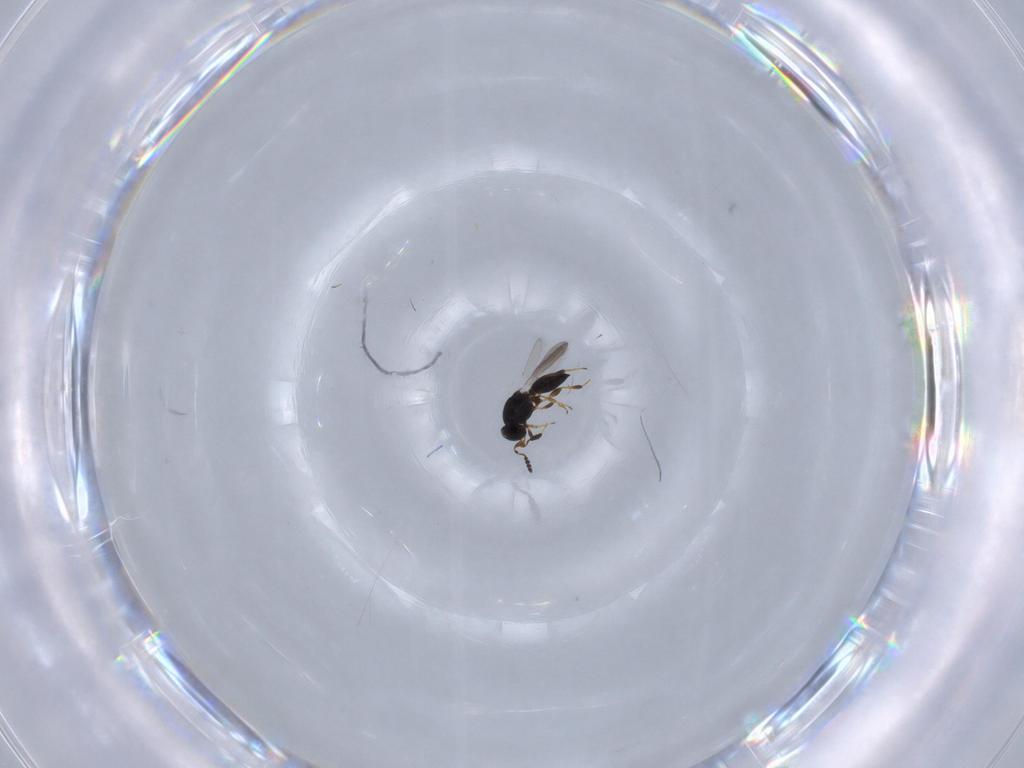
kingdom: Animalia
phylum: Arthropoda
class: Insecta
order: Hymenoptera
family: Platygastridae
